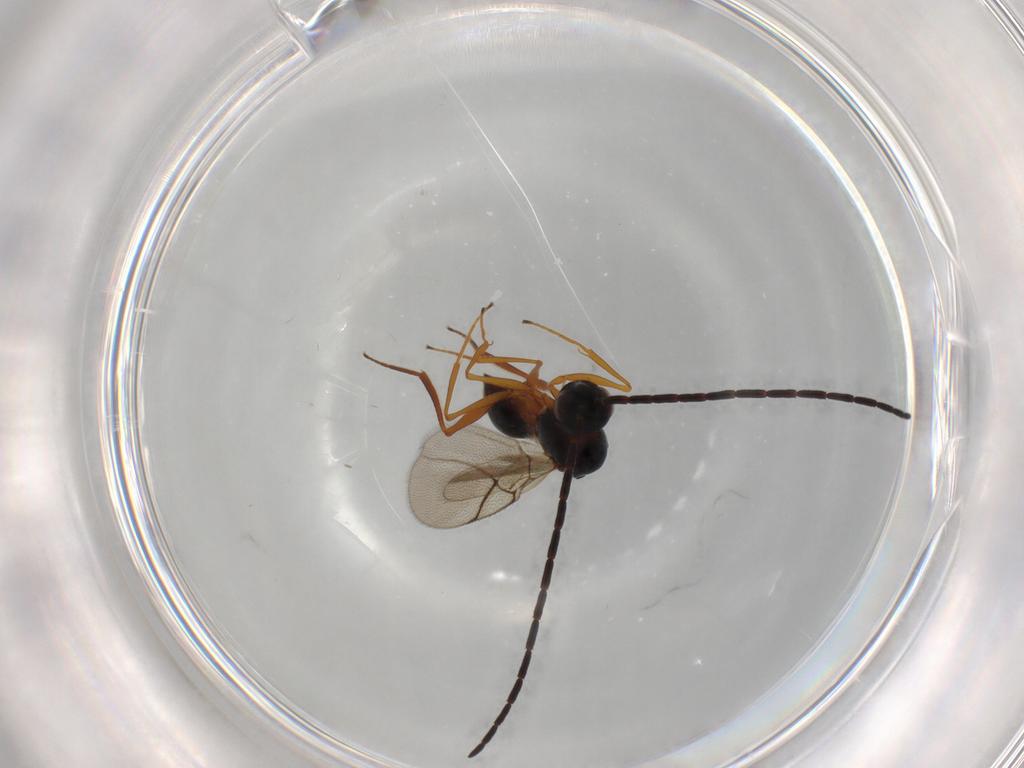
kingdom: Animalia
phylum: Arthropoda
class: Insecta
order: Hymenoptera
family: Figitidae
